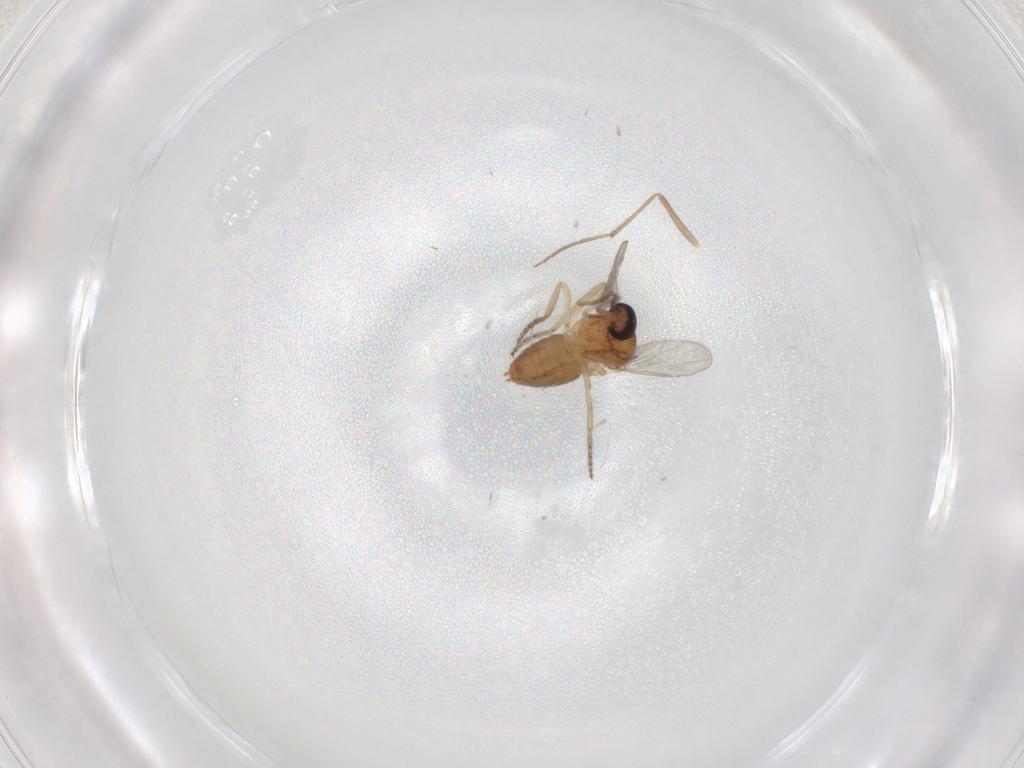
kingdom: Animalia
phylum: Arthropoda
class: Insecta
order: Diptera
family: Ceratopogonidae
